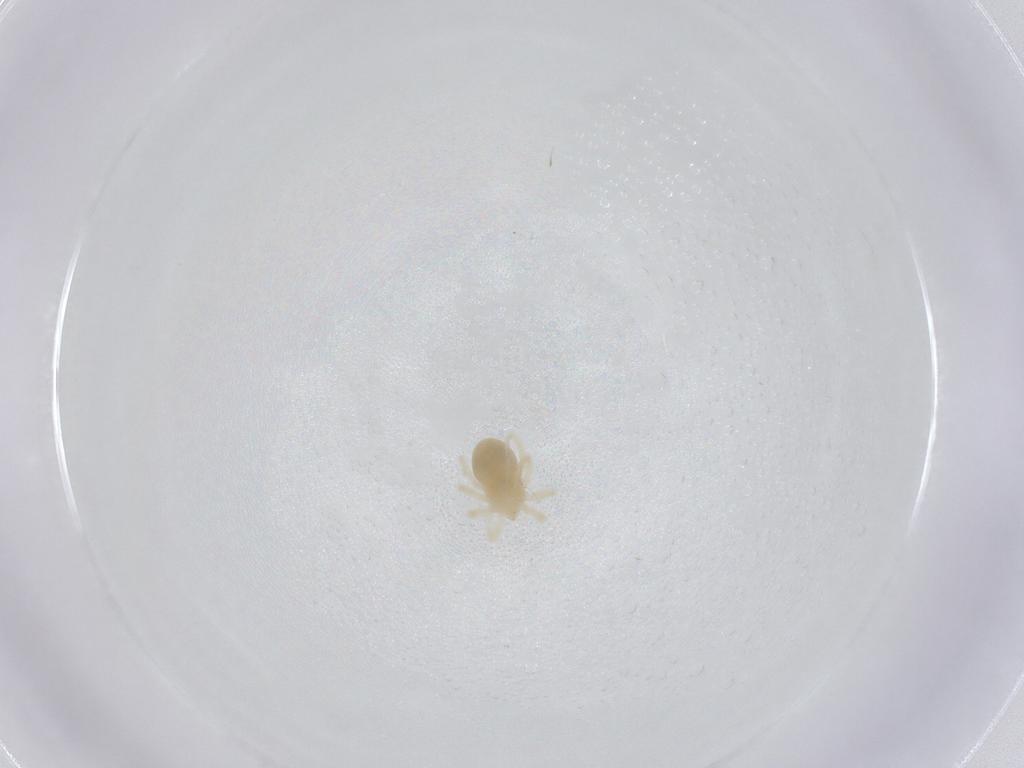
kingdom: Animalia
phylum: Arthropoda
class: Arachnida
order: Trombidiformes
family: Anystidae
